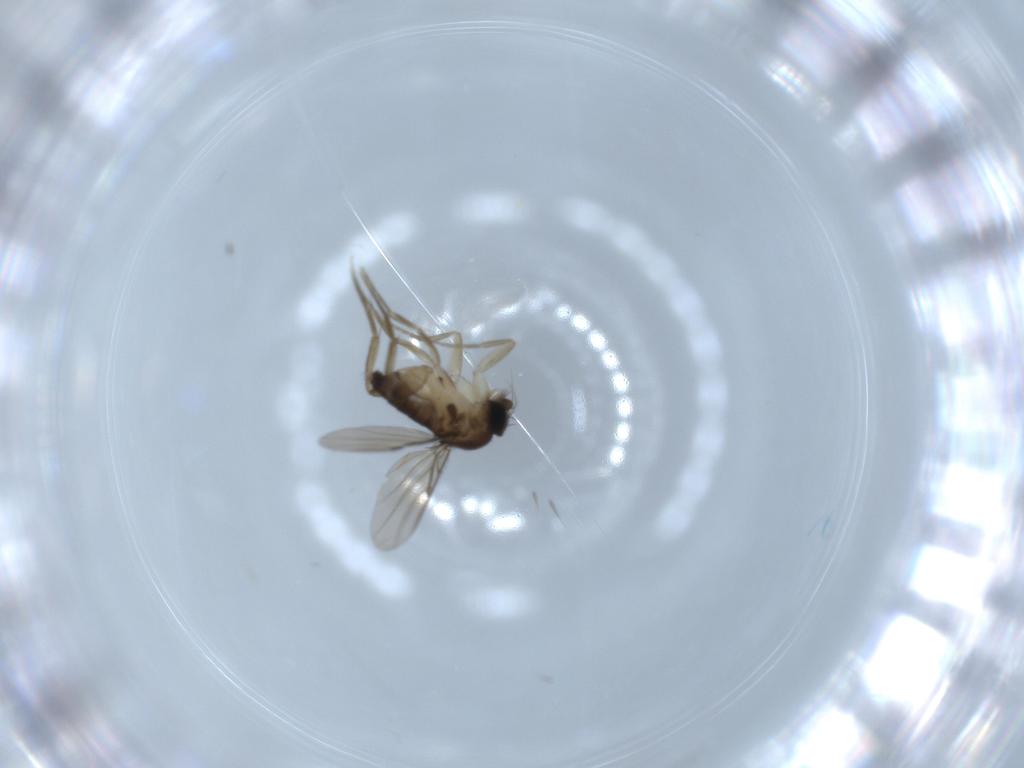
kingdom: Animalia
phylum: Arthropoda
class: Insecta
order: Diptera
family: Phoridae
